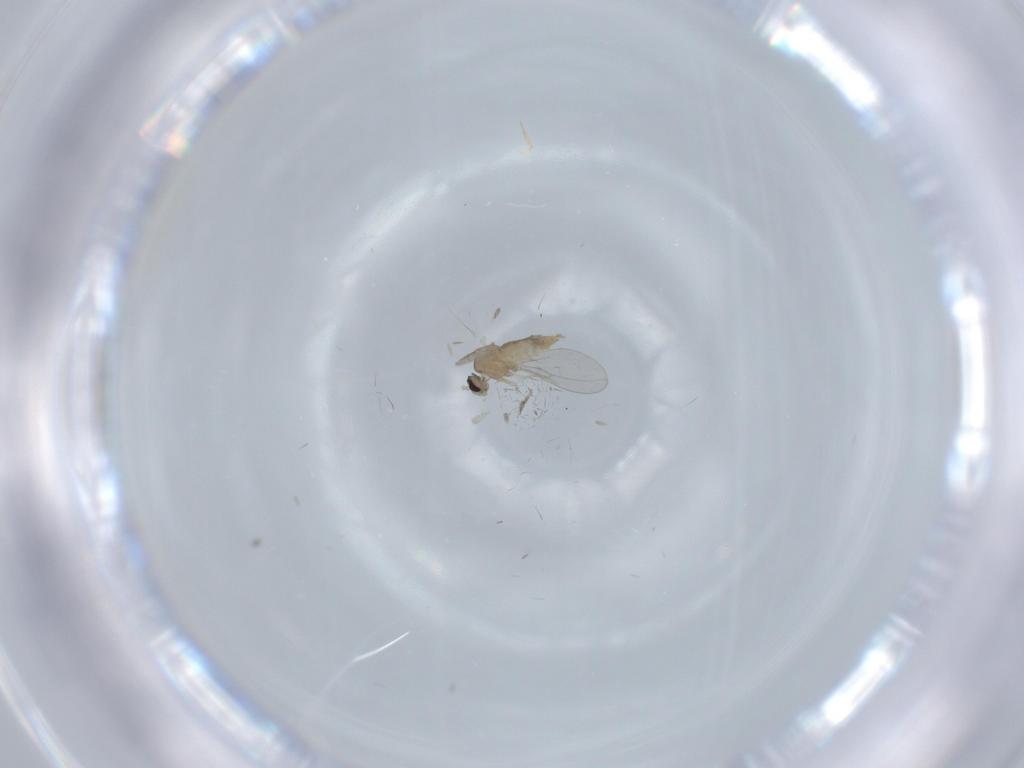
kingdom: Animalia
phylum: Arthropoda
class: Insecta
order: Diptera
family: Cecidomyiidae
